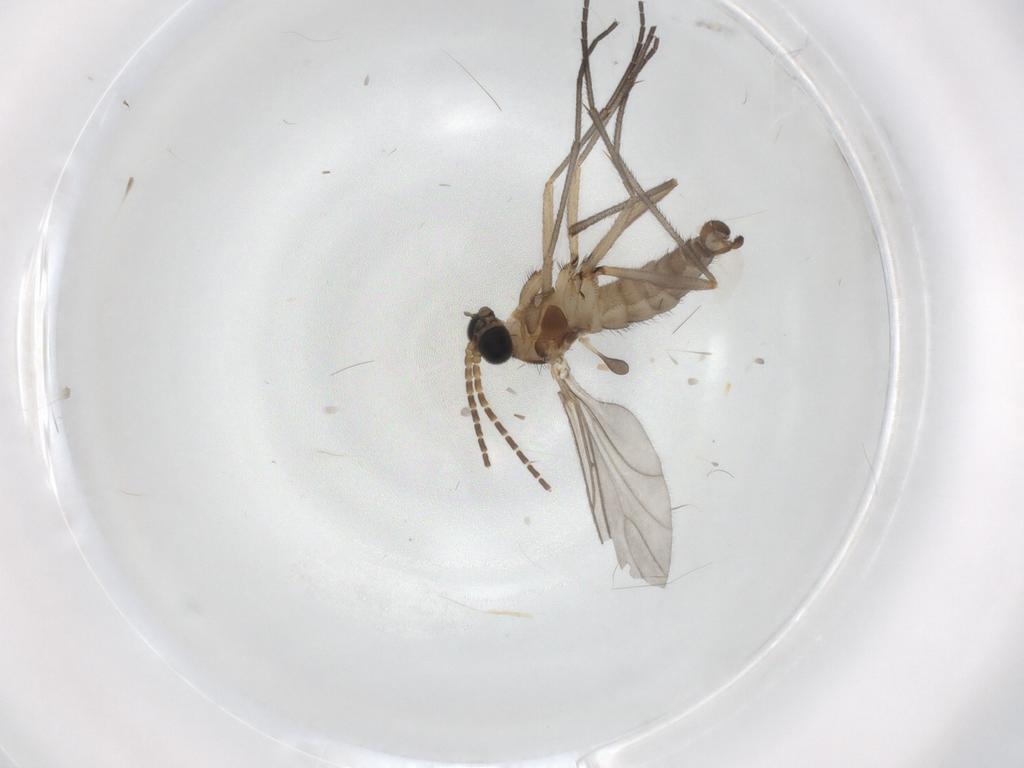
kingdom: Animalia
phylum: Arthropoda
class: Insecta
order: Diptera
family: Sciaridae
